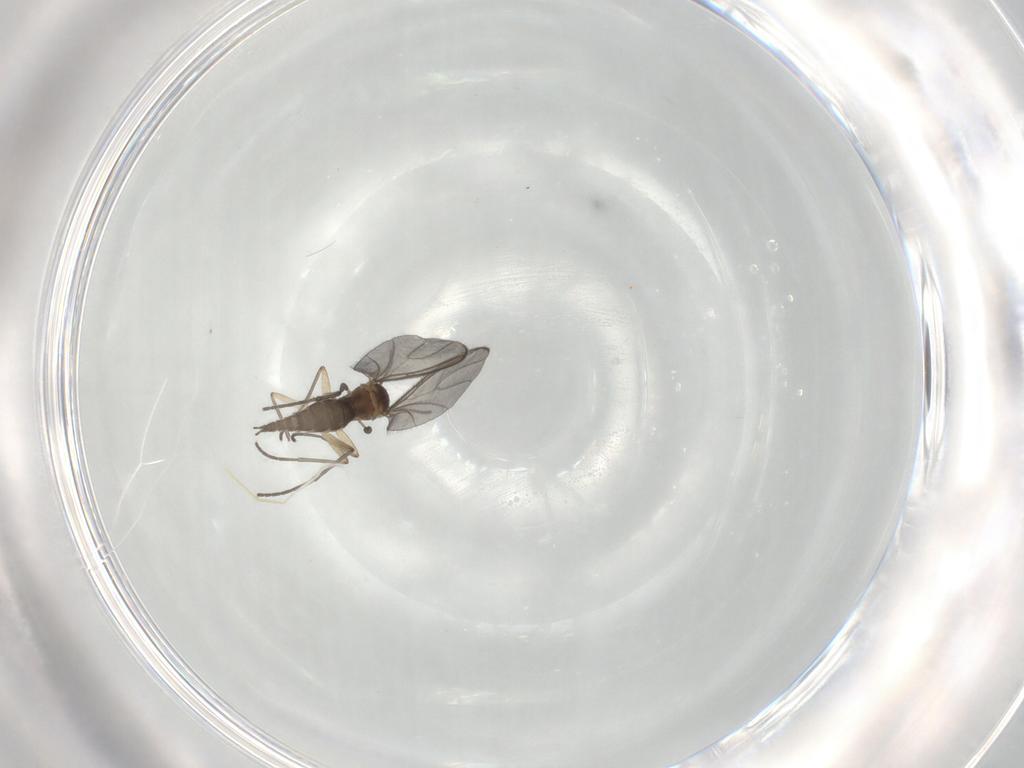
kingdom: Animalia
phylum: Arthropoda
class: Insecta
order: Diptera
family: Sciaridae
